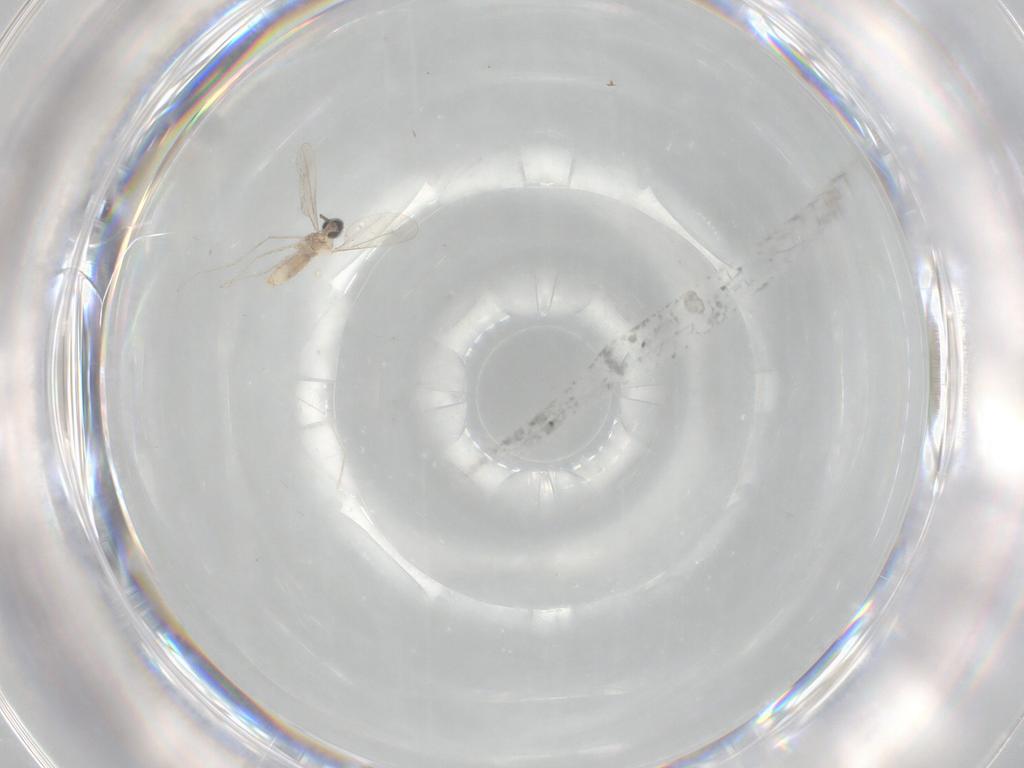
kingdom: Animalia
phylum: Arthropoda
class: Insecta
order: Diptera
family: Cecidomyiidae
